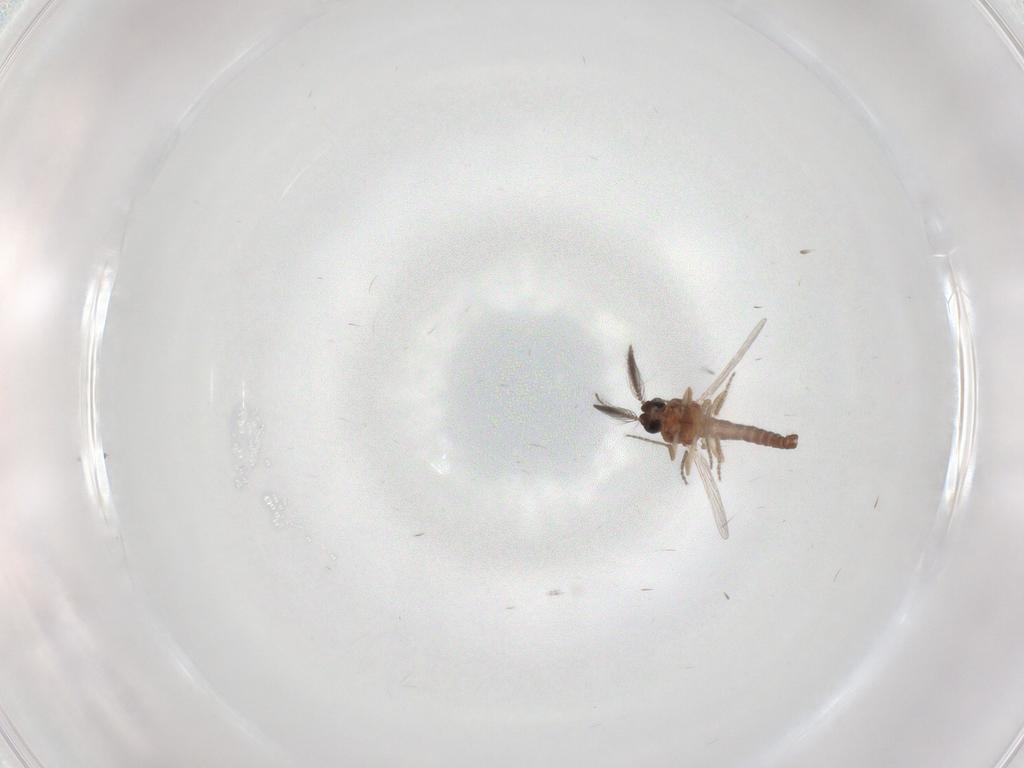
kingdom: Animalia
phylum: Arthropoda
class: Insecta
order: Diptera
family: Ceratopogonidae
